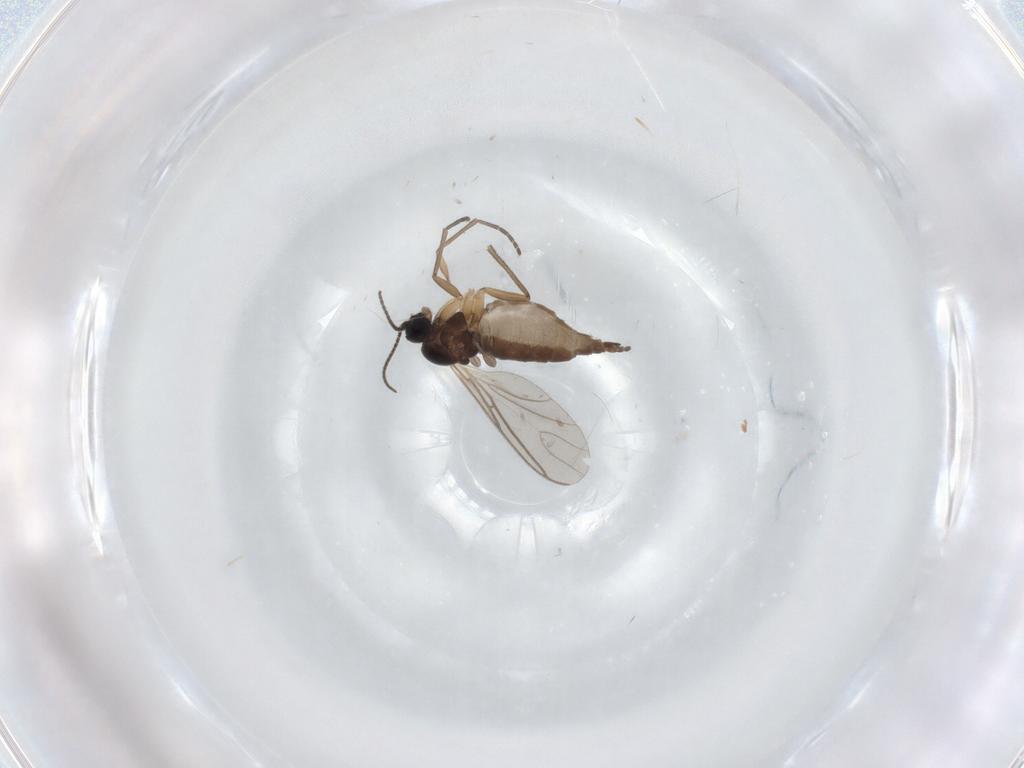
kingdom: Animalia
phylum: Arthropoda
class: Insecta
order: Diptera
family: Sciaridae
